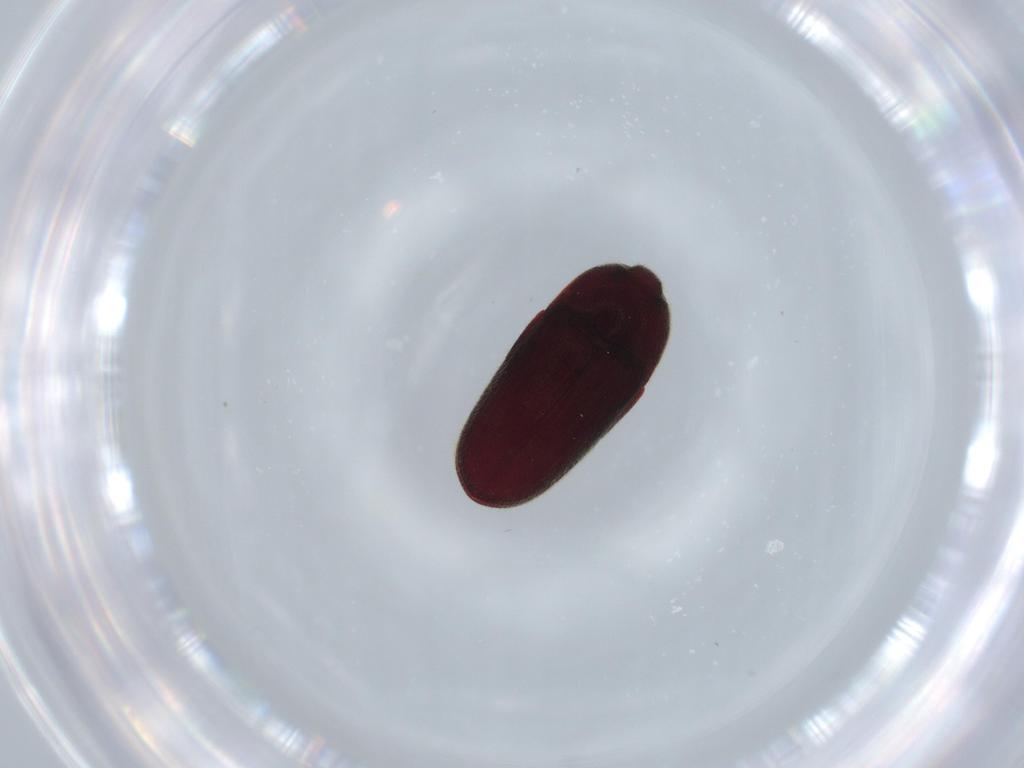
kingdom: Animalia
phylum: Arthropoda
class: Insecta
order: Coleoptera
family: Throscidae
